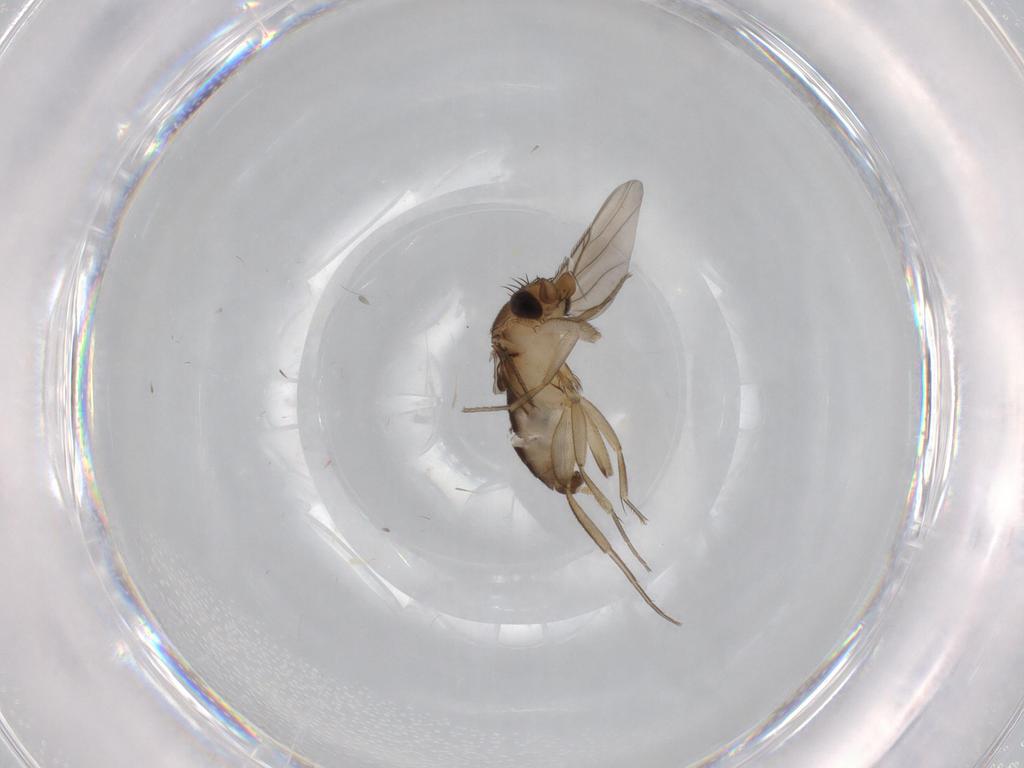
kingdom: Animalia
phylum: Arthropoda
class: Insecta
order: Diptera
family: Phoridae
